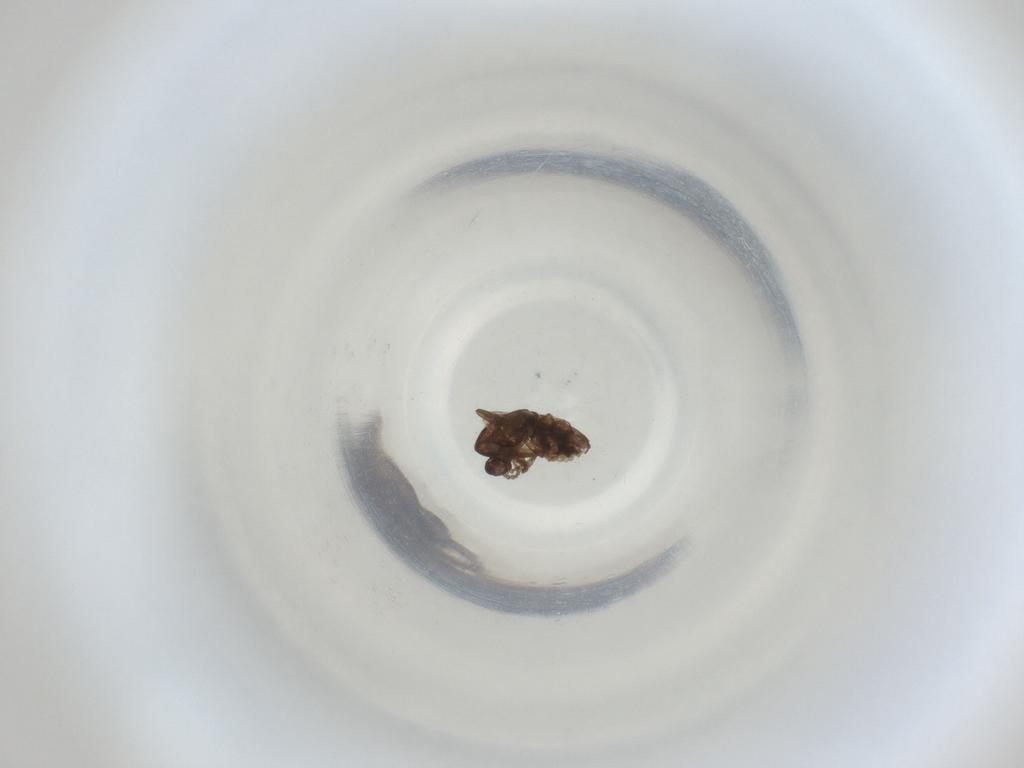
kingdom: Animalia
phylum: Arthropoda
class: Insecta
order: Diptera
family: Cecidomyiidae
